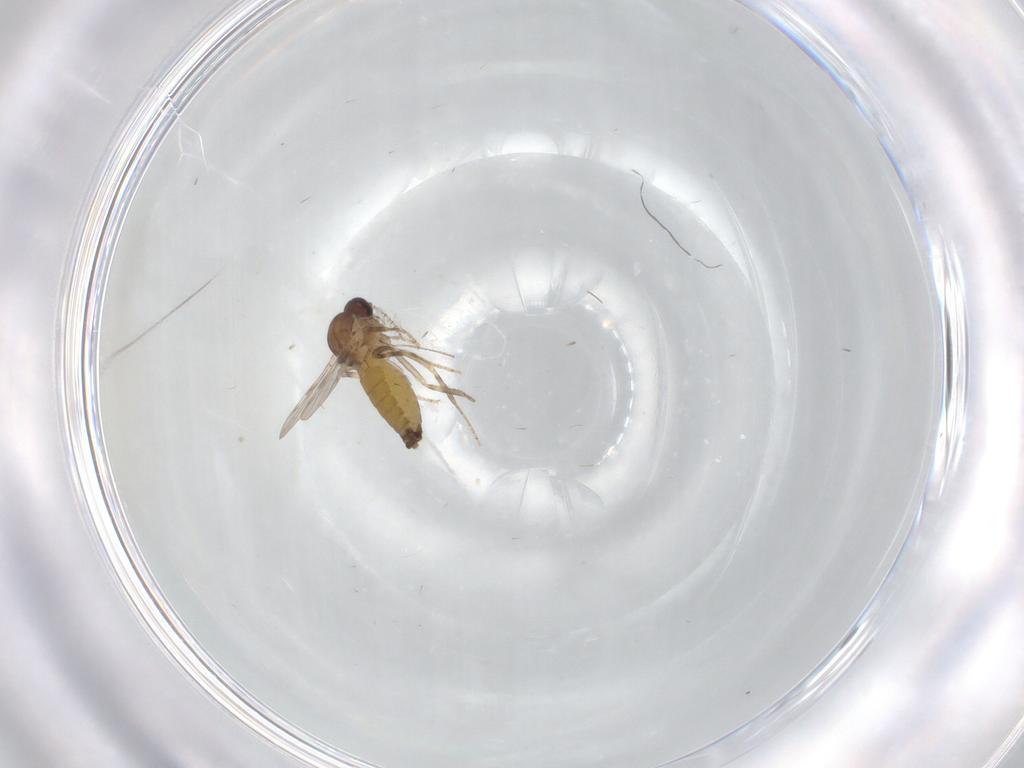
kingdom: Animalia
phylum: Arthropoda
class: Insecta
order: Diptera
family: Ceratopogonidae
